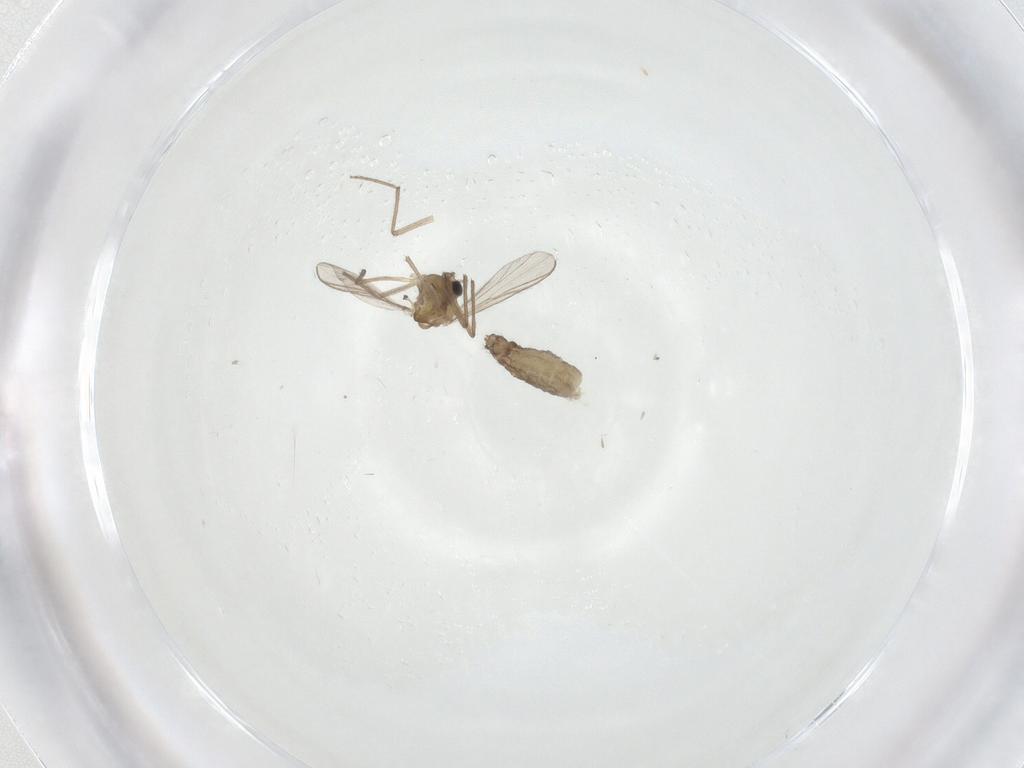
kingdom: Animalia
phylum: Arthropoda
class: Insecta
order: Diptera
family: Chironomidae
